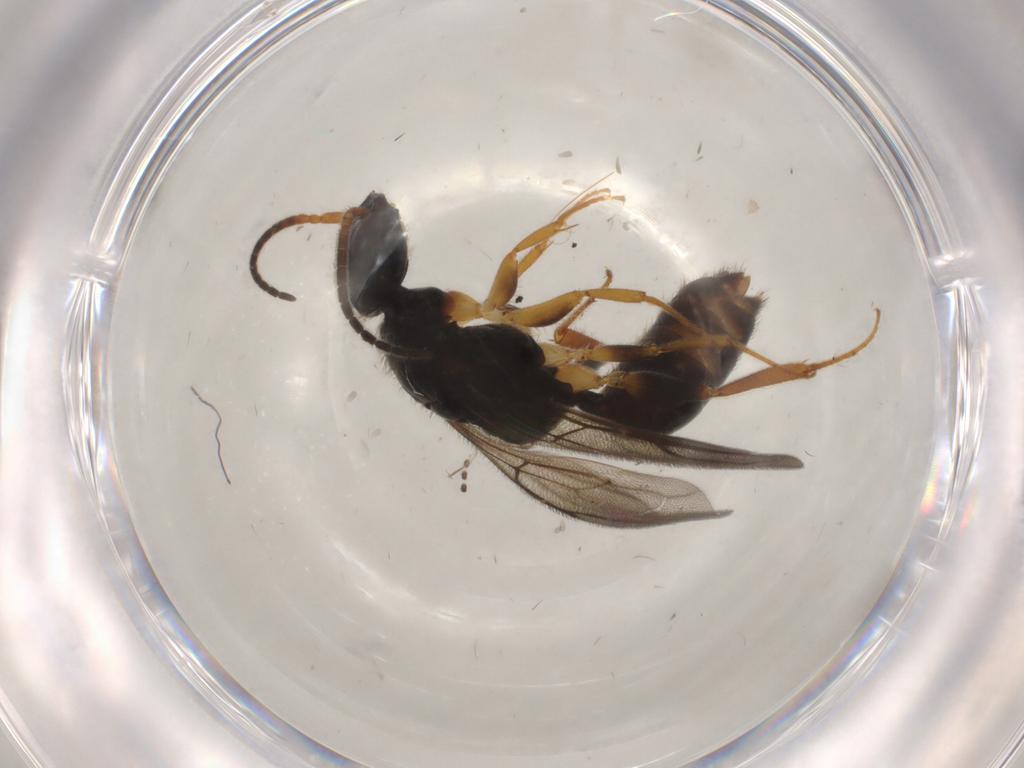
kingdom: Animalia
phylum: Arthropoda
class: Insecta
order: Hymenoptera
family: Bethylidae
